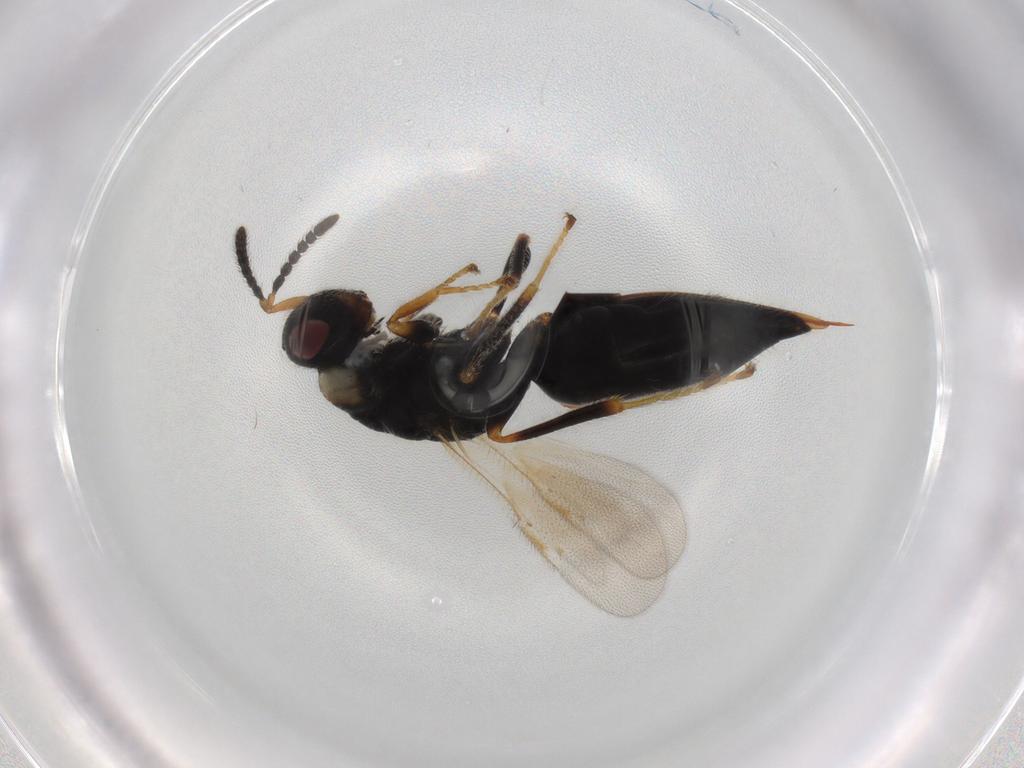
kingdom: Animalia
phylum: Arthropoda
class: Insecta
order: Hymenoptera
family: Eurytomidae
